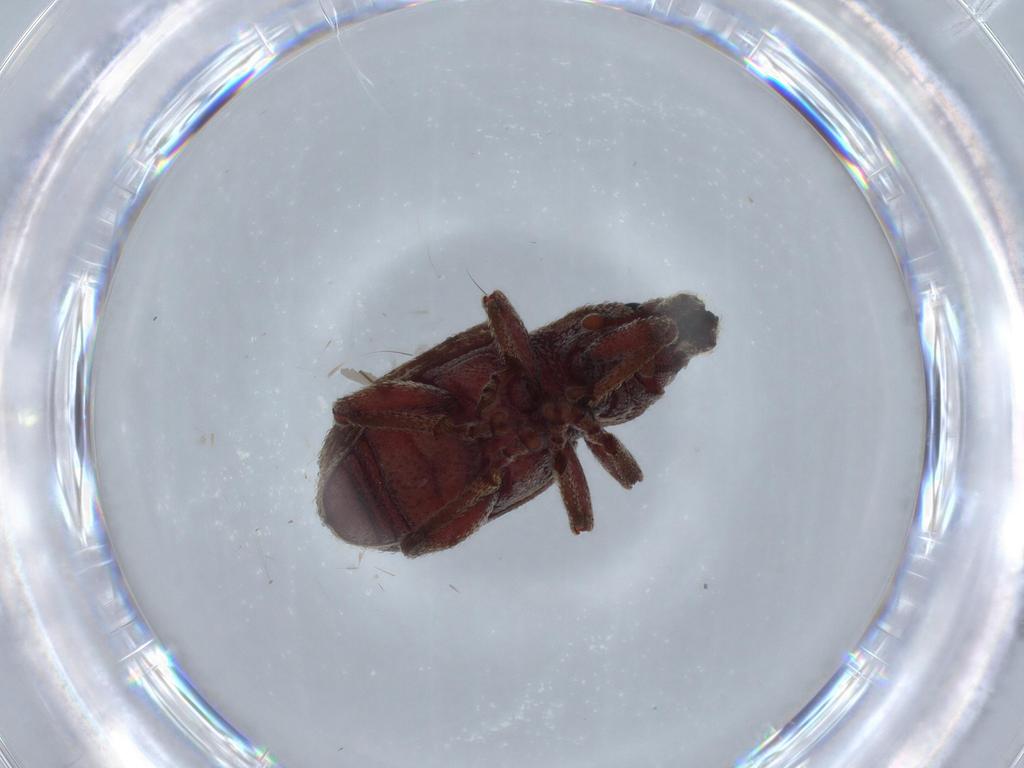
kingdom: Animalia
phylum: Arthropoda
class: Insecta
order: Coleoptera
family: Curculionidae
